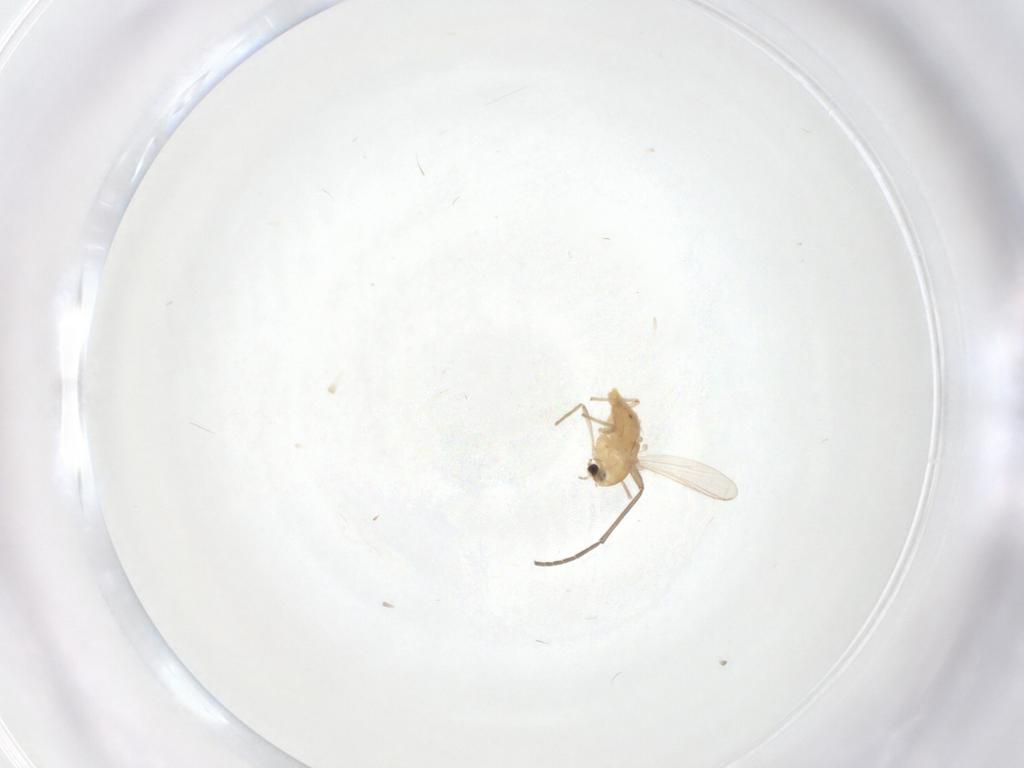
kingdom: Animalia
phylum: Arthropoda
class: Insecta
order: Diptera
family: Chironomidae
